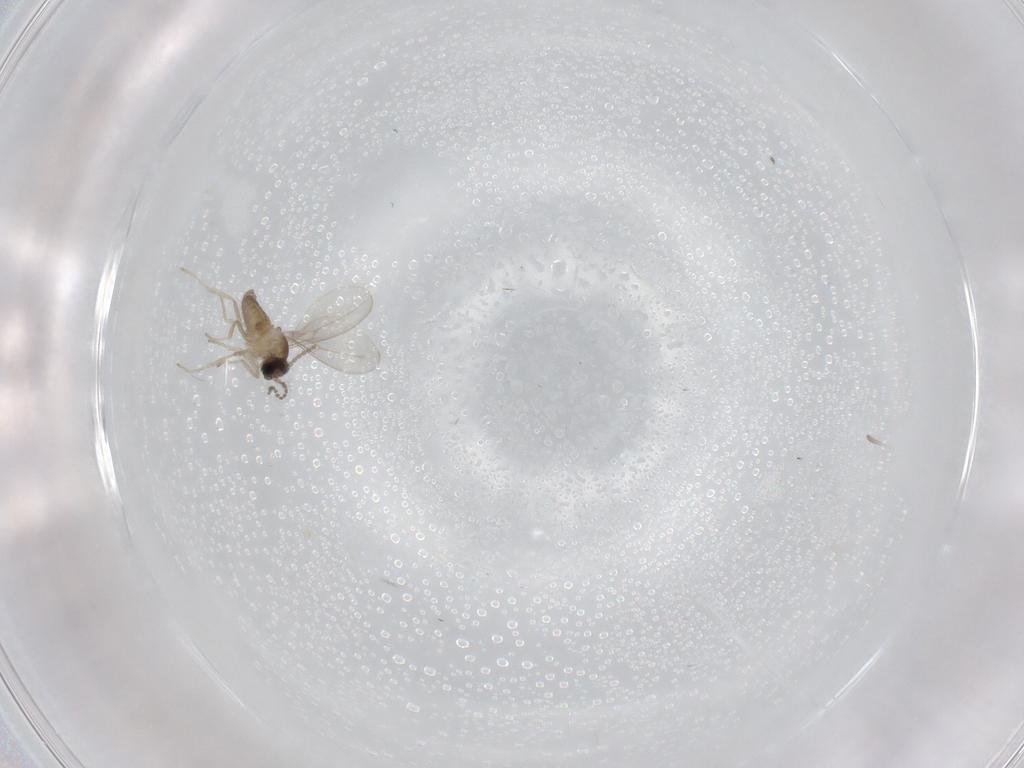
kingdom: Animalia
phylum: Arthropoda
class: Insecta
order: Diptera
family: Cecidomyiidae
